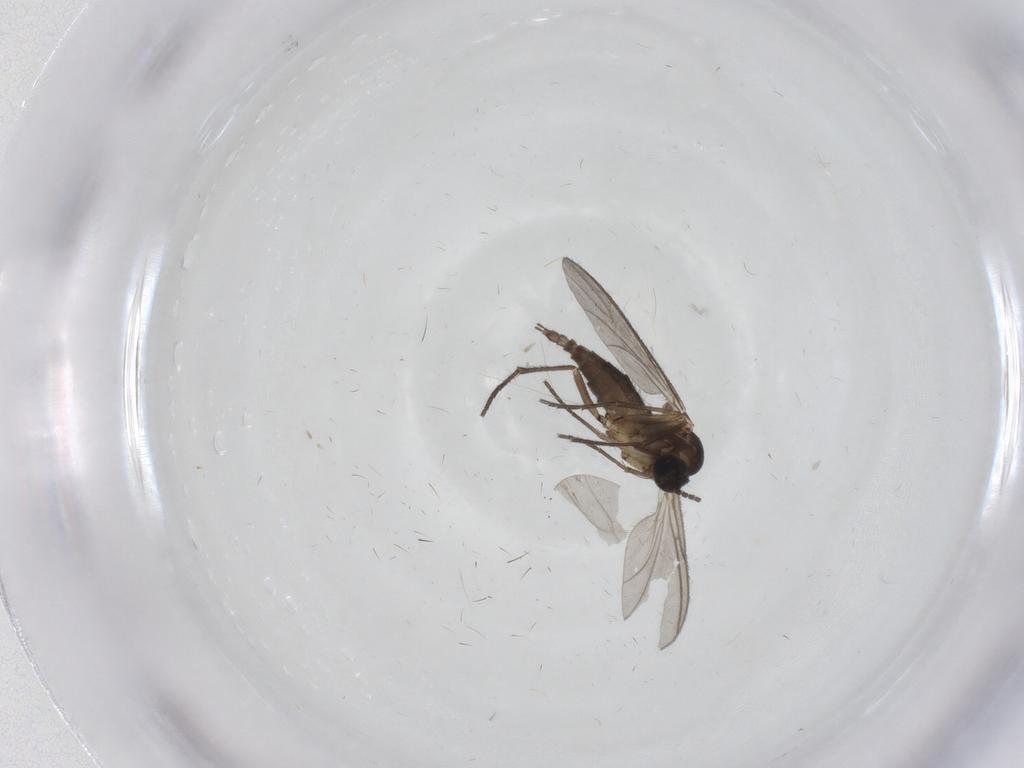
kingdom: Animalia
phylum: Arthropoda
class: Insecta
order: Diptera
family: Sciaridae
